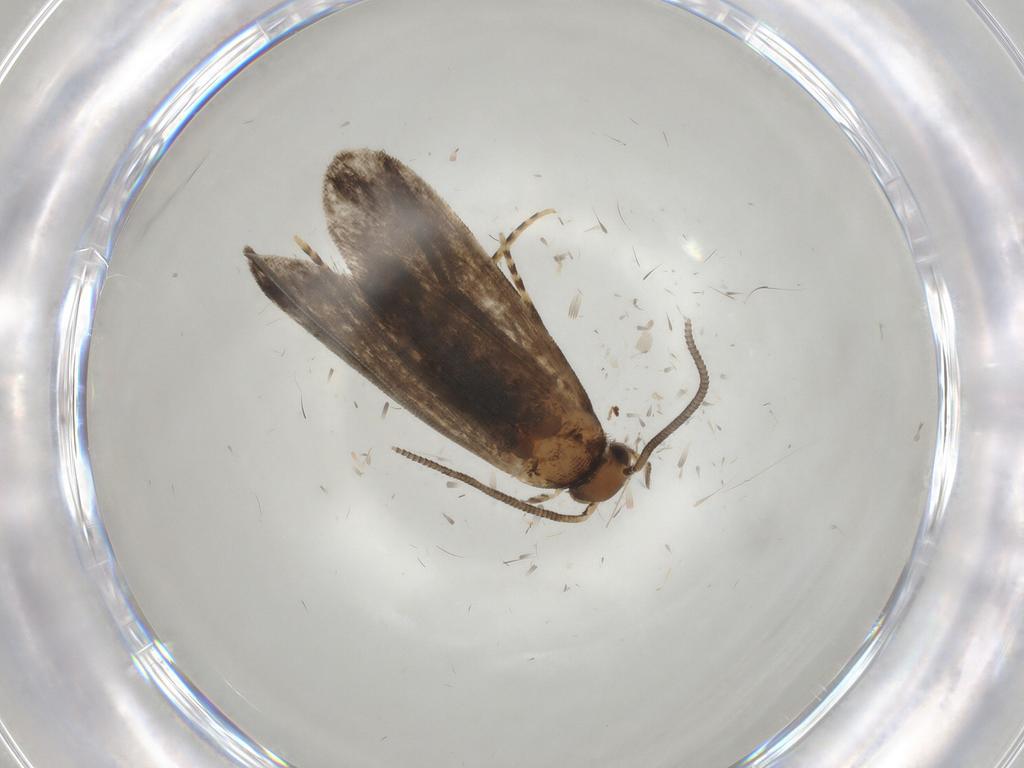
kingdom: Animalia
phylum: Arthropoda
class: Insecta
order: Lepidoptera
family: Dryadaulidae
